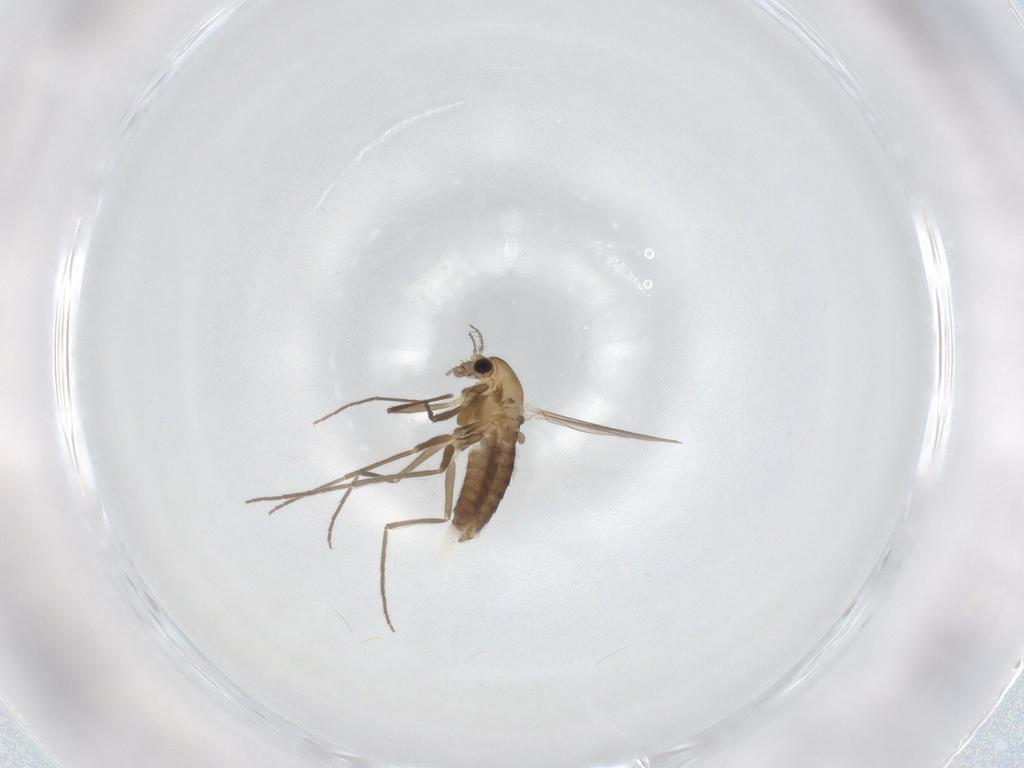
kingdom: Animalia
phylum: Arthropoda
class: Insecta
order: Diptera
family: Chironomidae
